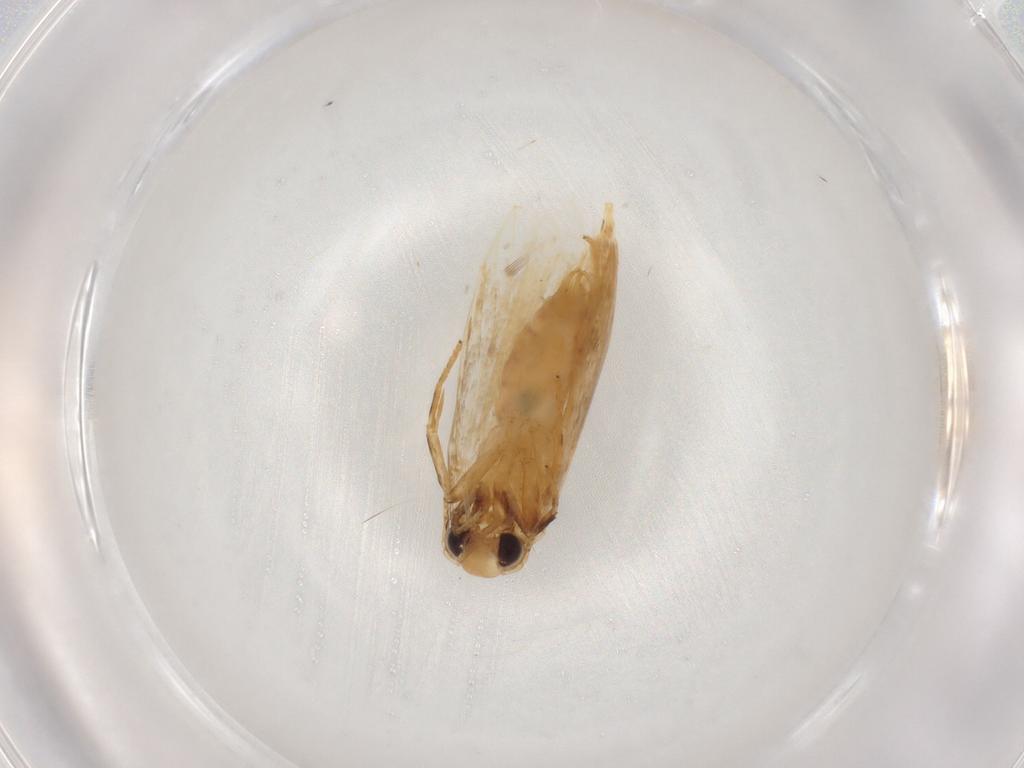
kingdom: Animalia
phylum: Arthropoda
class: Insecta
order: Lepidoptera
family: Depressariidae
